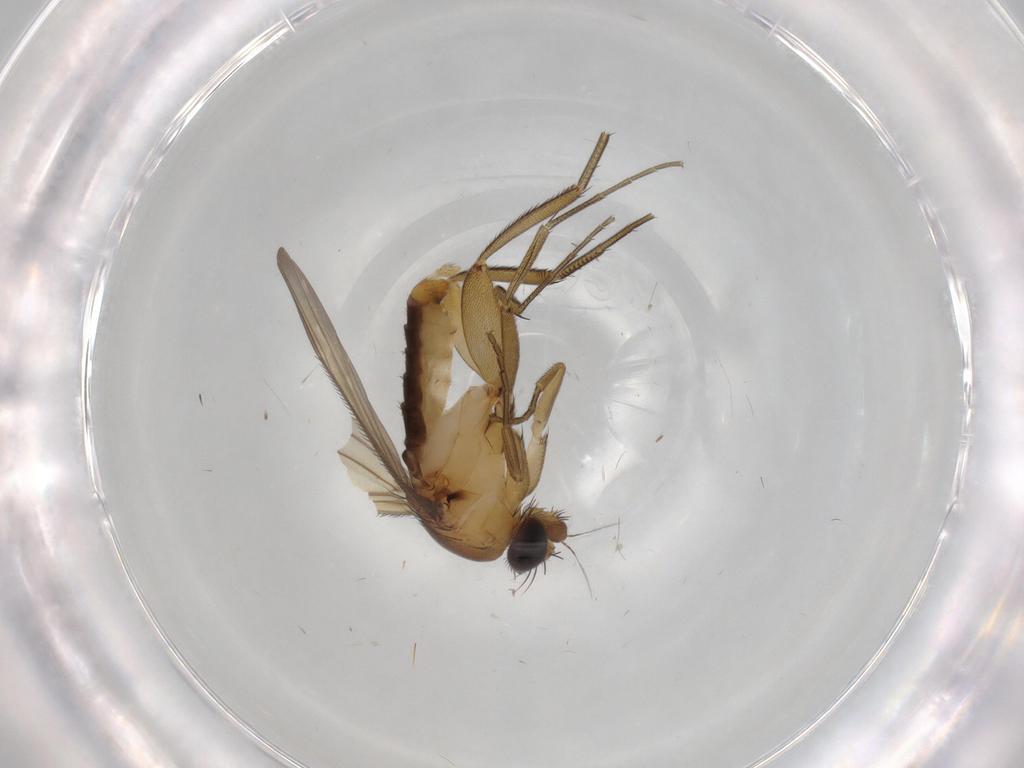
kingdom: Animalia
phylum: Arthropoda
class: Insecta
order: Diptera
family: Phoridae
